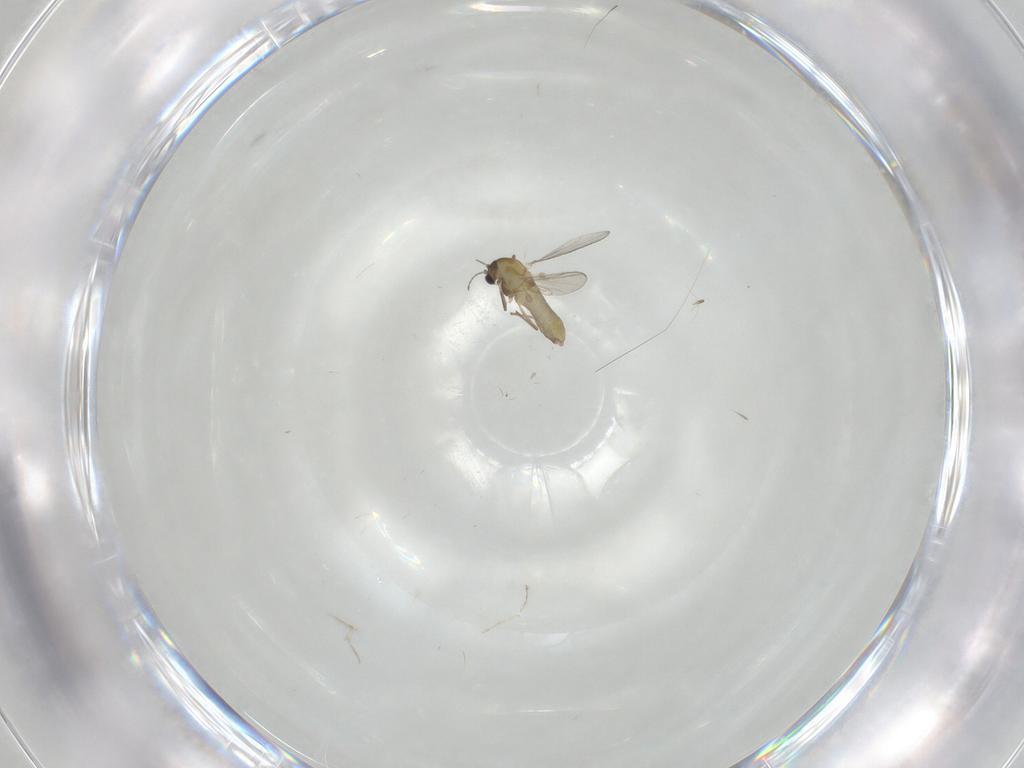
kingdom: Animalia
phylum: Arthropoda
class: Insecta
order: Diptera
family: Chironomidae
